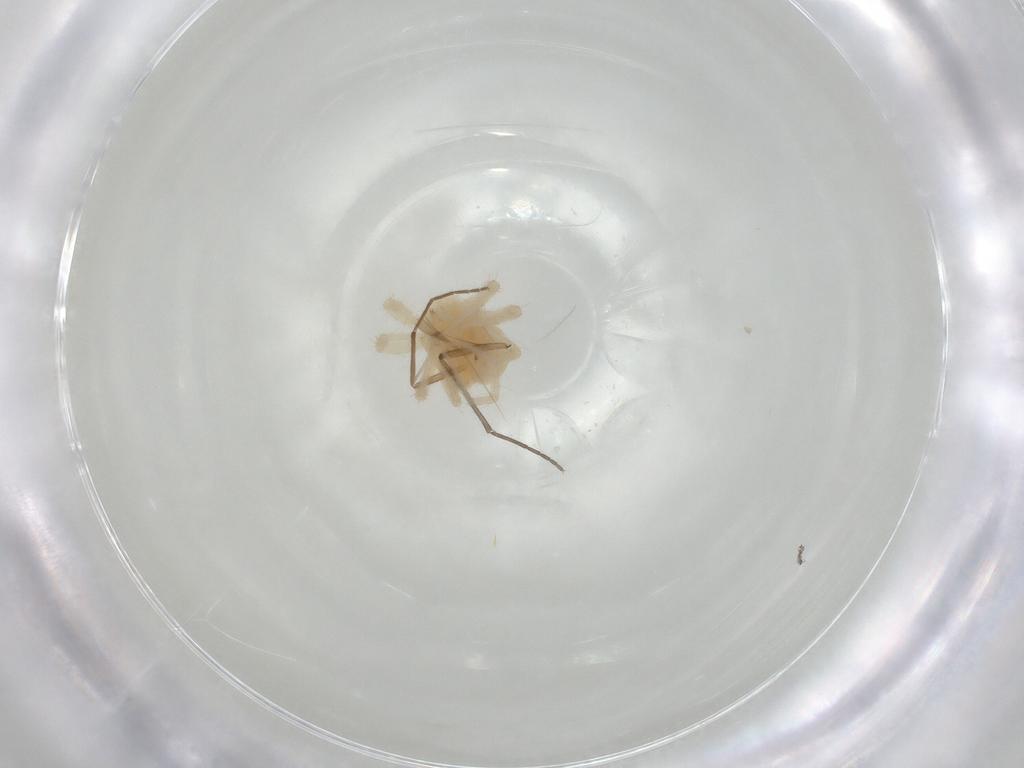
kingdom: Animalia
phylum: Arthropoda
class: Arachnida
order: Trombidiformes
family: Anystidae
